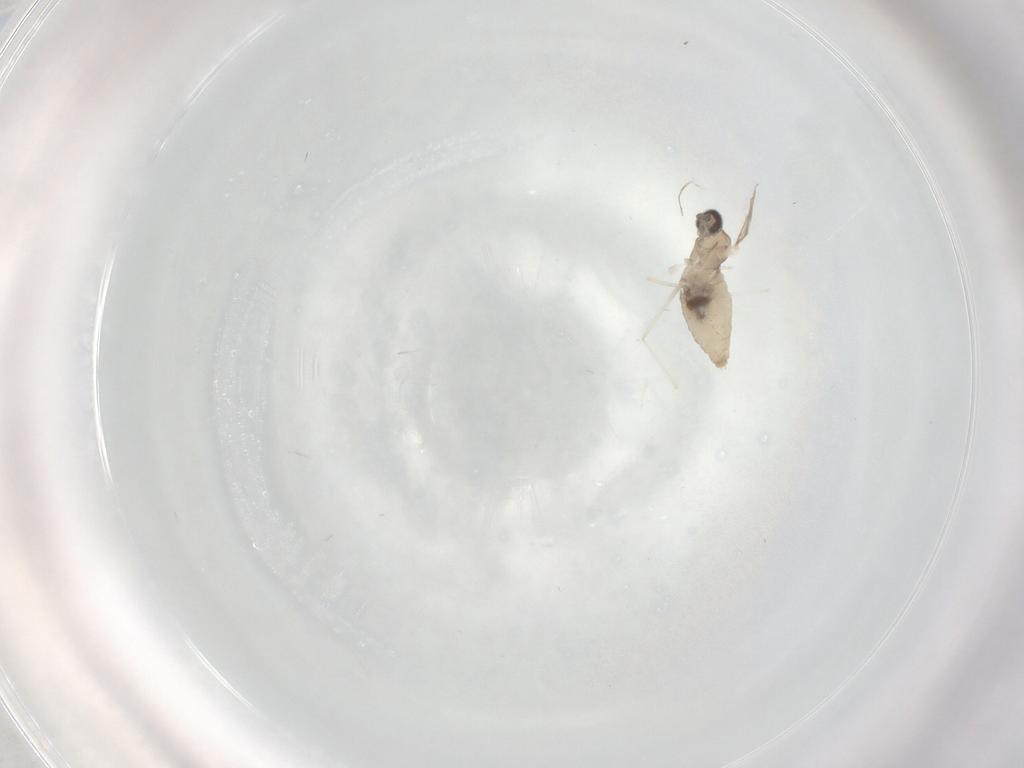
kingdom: Animalia
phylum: Arthropoda
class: Insecta
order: Diptera
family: Cecidomyiidae
